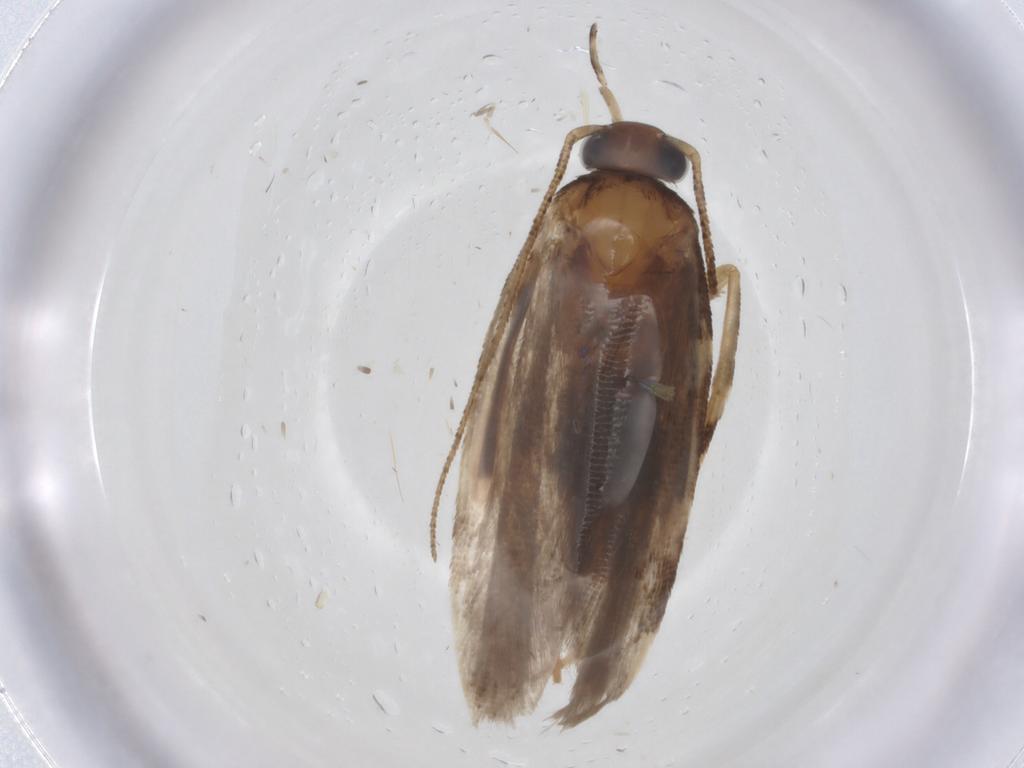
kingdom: Animalia
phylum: Arthropoda
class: Insecta
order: Lepidoptera
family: Gelechiidae
